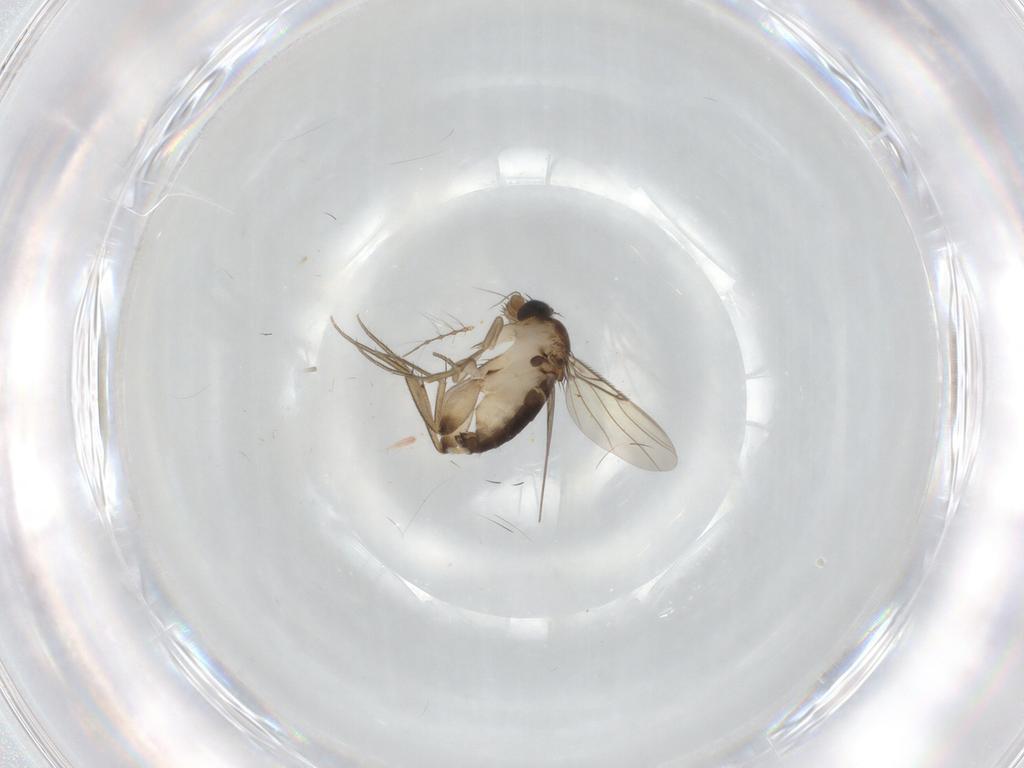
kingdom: Animalia
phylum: Arthropoda
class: Insecta
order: Diptera
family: Phoridae
